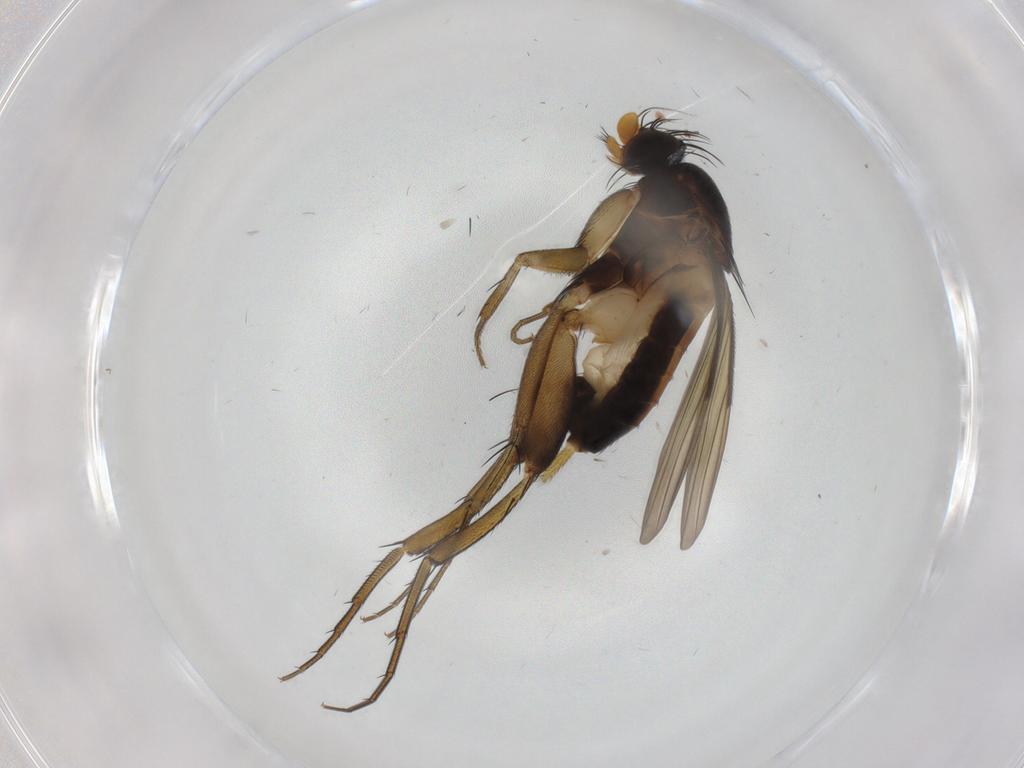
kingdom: Animalia
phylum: Arthropoda
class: Insecta
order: Diptera
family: Phoridae
